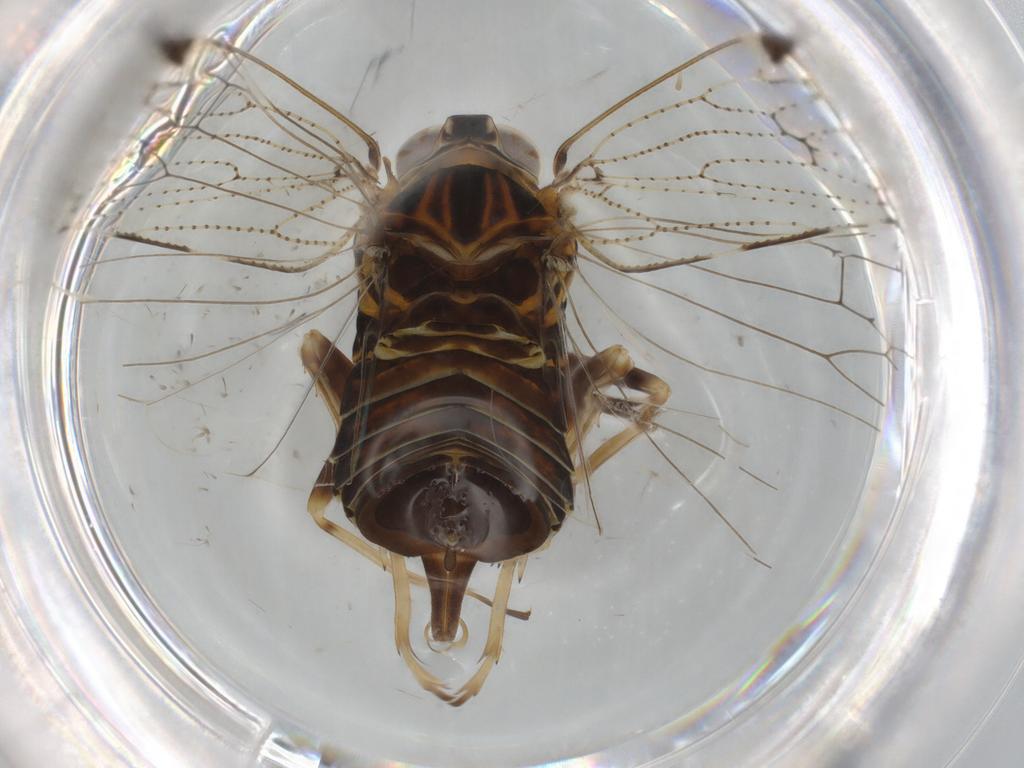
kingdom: Animalia
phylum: Arthropoda
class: Insecta
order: Hemiptera
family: Cixiidae
